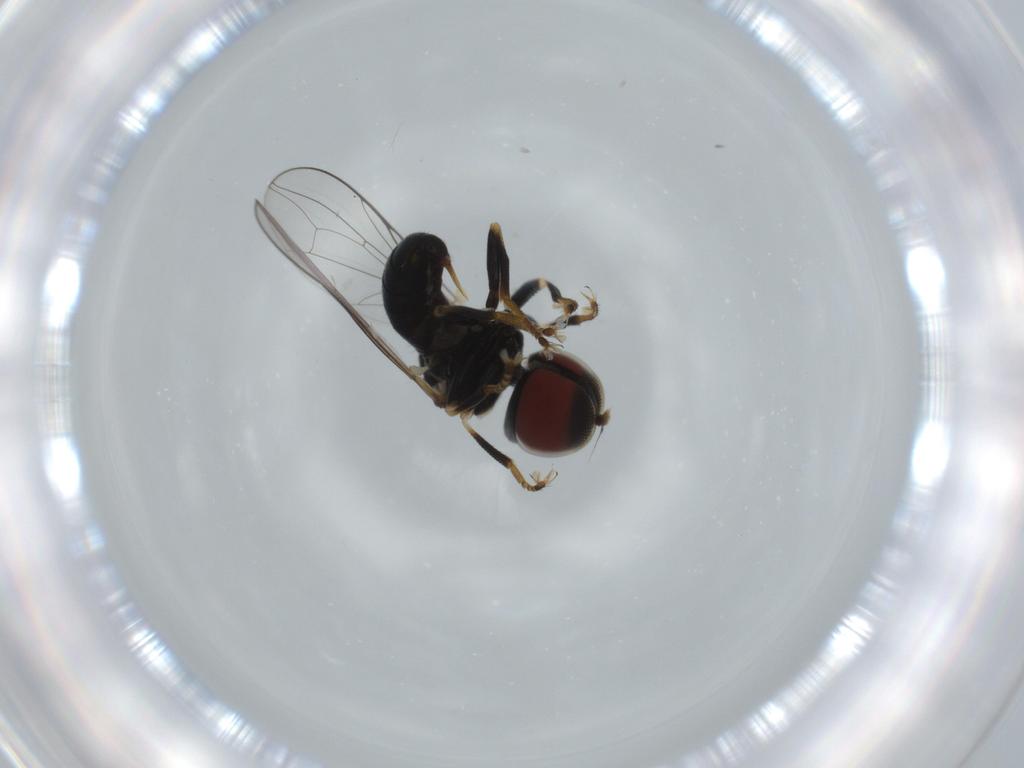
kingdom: Animalia
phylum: Arthropoda
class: Insecta
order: Diptera
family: Pipunculidae
